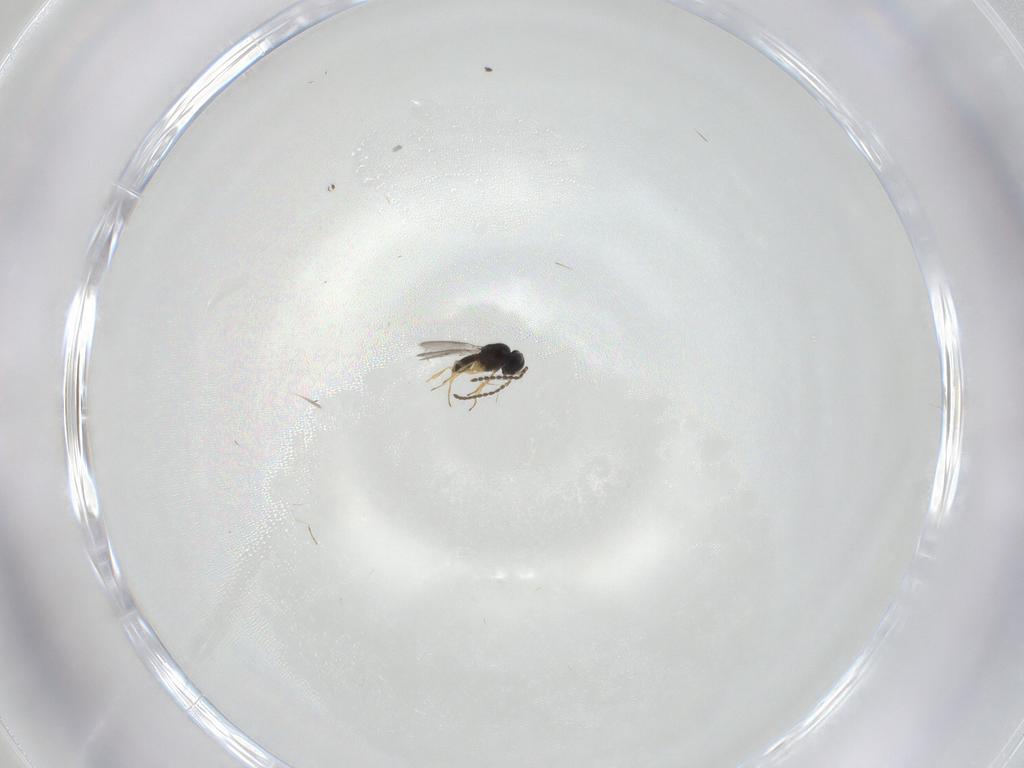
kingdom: Animalia
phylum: Arthropoda
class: Insecta
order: Hymenoptera
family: Scelionidae
